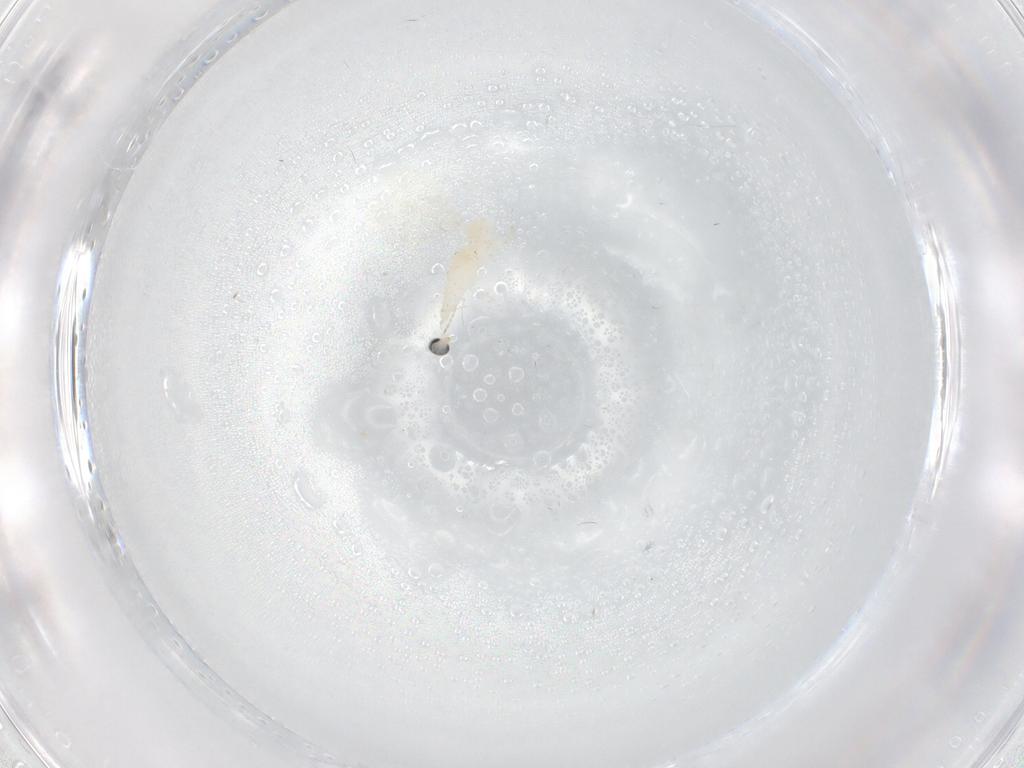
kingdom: Animalia
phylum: Arthropoda
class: Insecta
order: Diptera
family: Cecidomyiidae
